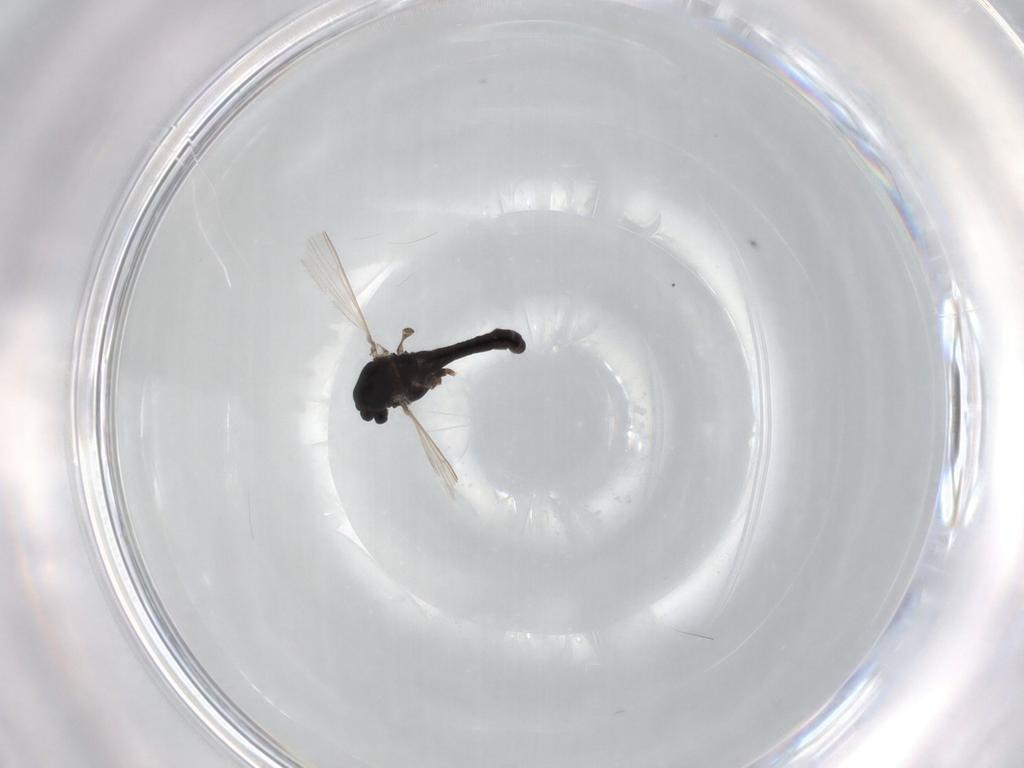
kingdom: Animalia
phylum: Arthropoda
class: Insecta
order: Diptera
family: Chironomidae
